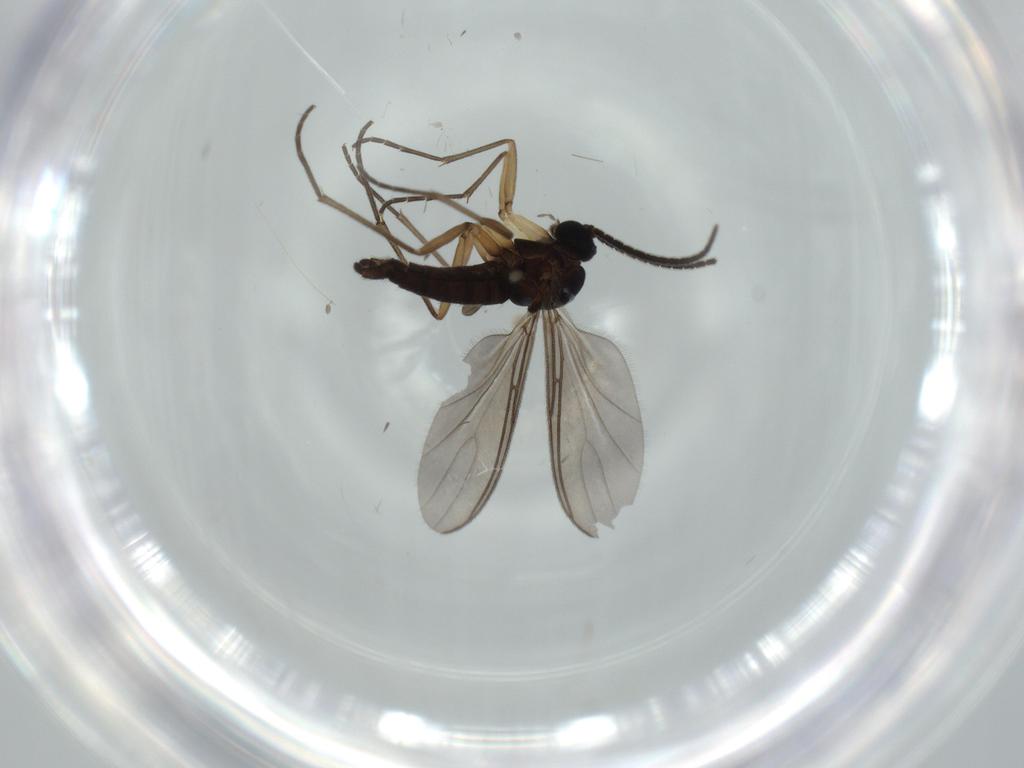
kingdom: Animalia
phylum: Arthropoda
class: Insecta
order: Diptera
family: Sciaridae
